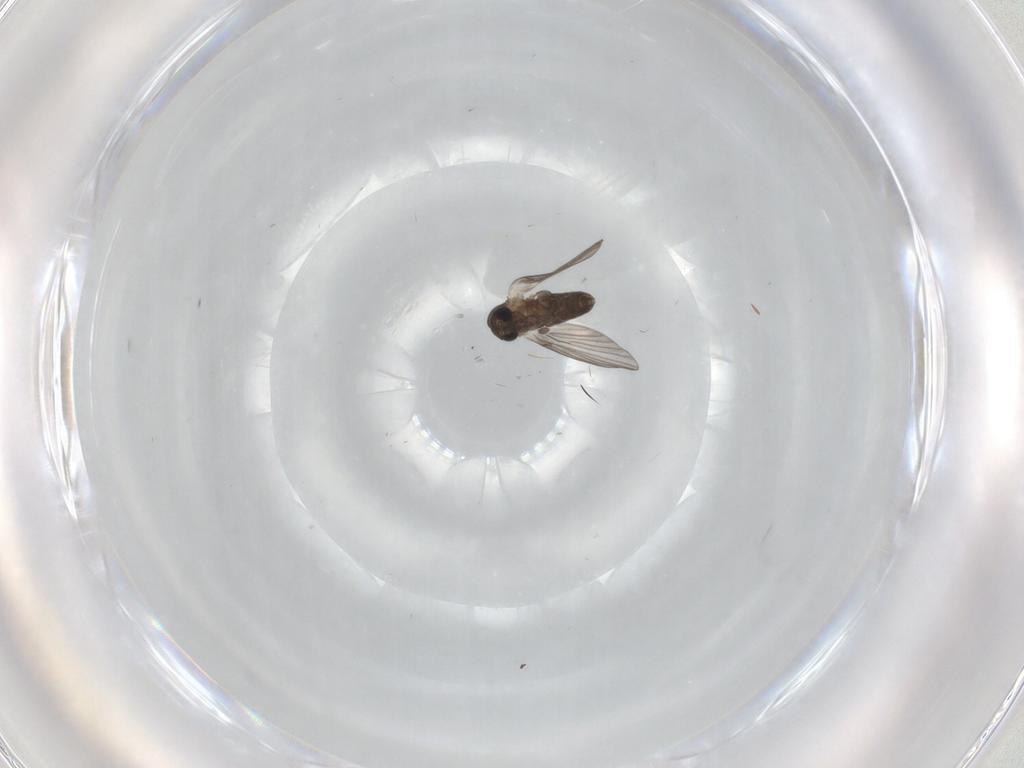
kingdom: Animalia
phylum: Arthropoda
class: Insecta
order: Diptera
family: Phoridae
